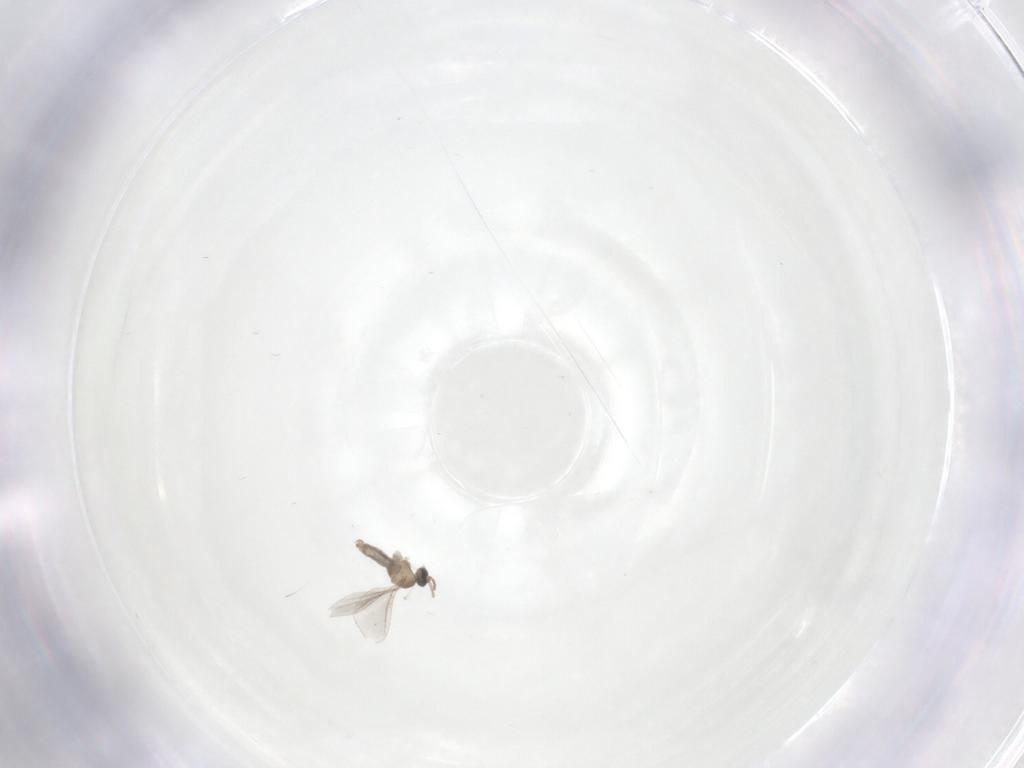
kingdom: Animalia
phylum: Arthropoda
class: Insecta
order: Diptera
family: Cecidomyiidae
